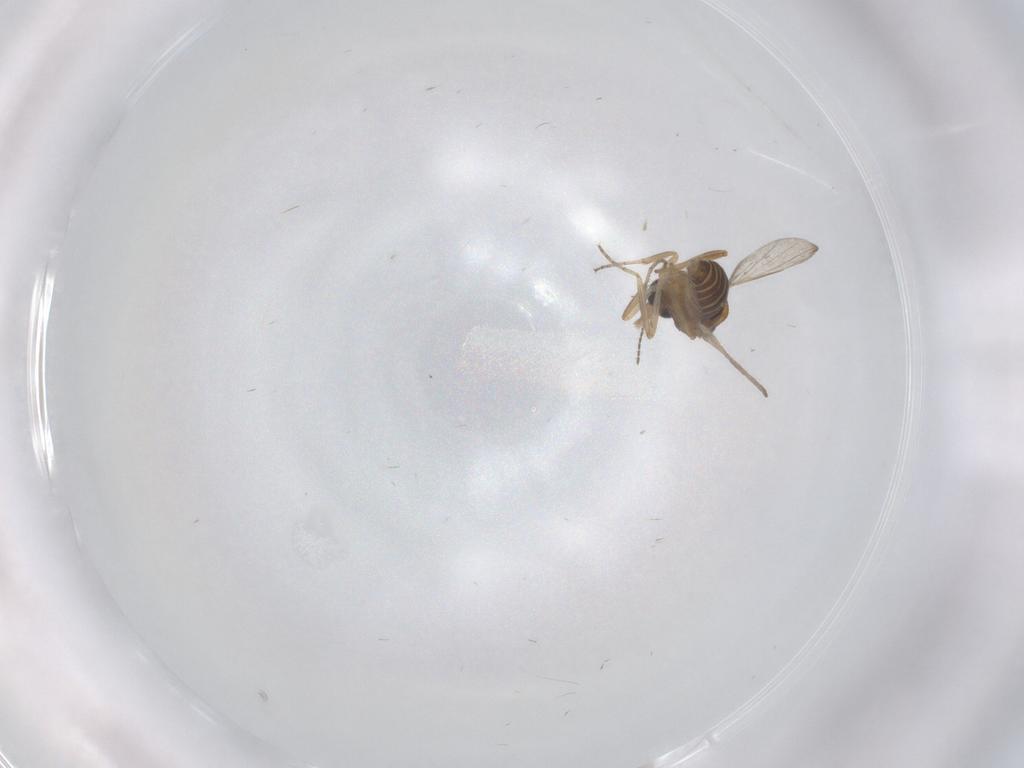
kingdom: Animalia
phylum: Arthropoda
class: Insecta
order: Diptera
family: Ceratopogonidae
